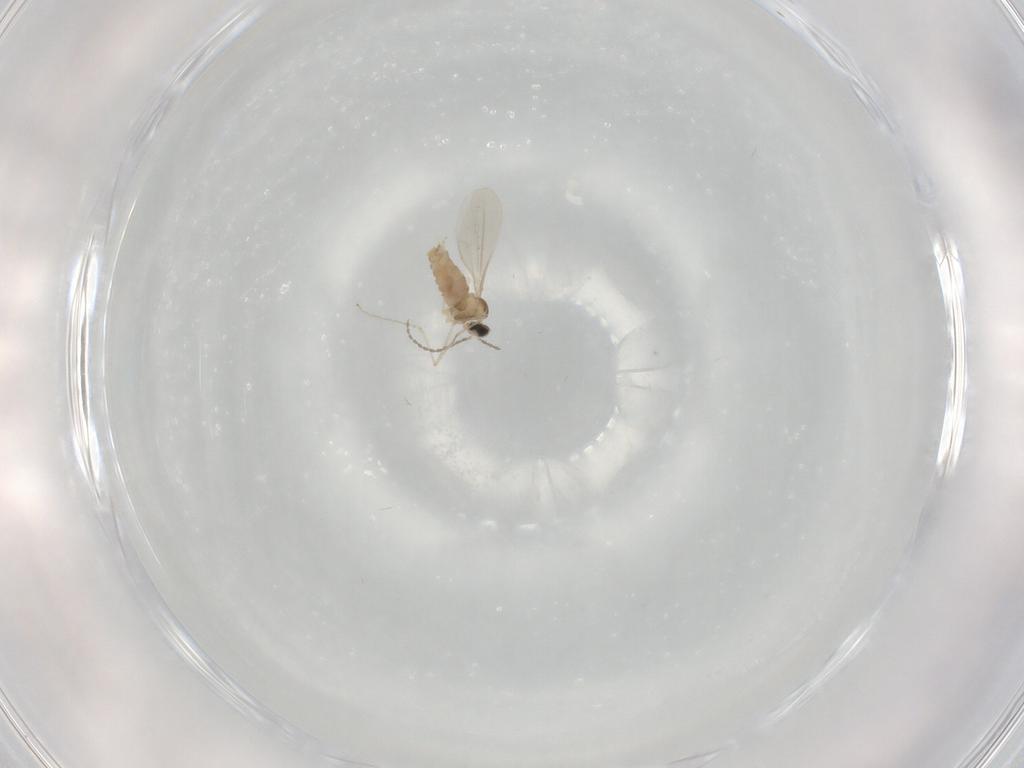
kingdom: Animalia
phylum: Arthropoda
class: Insecta
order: Diptera
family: Cecidomyiidae
